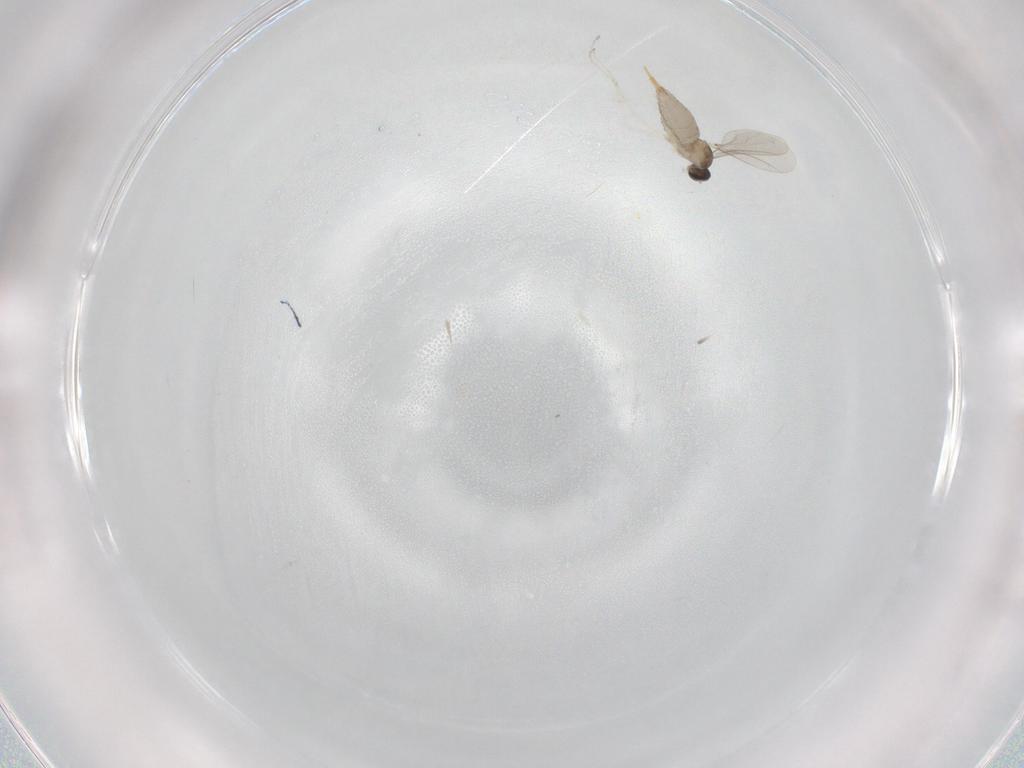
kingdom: Animalia
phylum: Arthropoda
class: Insecta
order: Diptera
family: Cecidomyiidae
